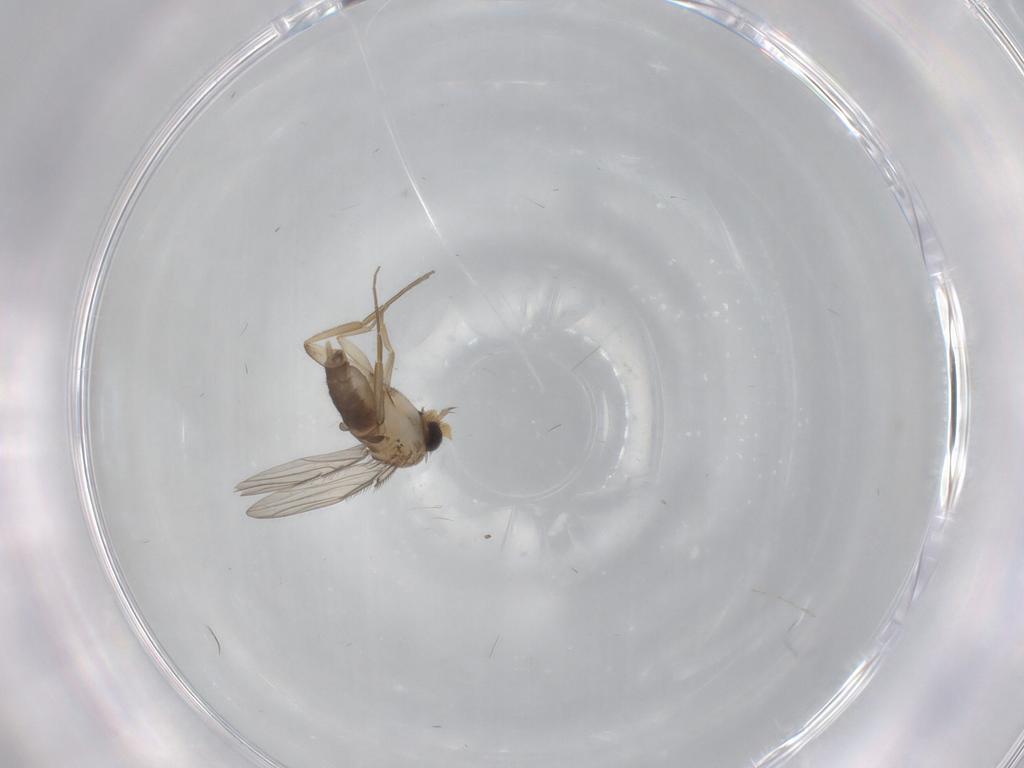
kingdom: Animalia
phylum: Arthropoda
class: Insecta
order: Diptera
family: Phoridae
